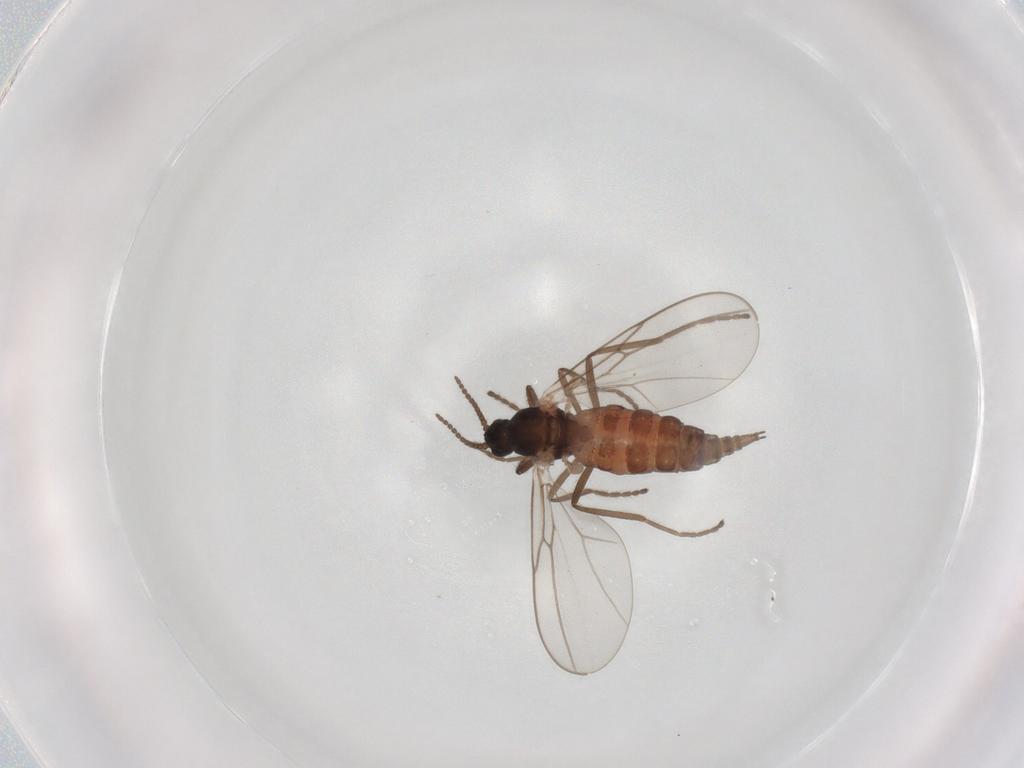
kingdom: Animalia
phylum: Arthropoda
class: Insecta
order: Diptera
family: Cecidomyiidae
